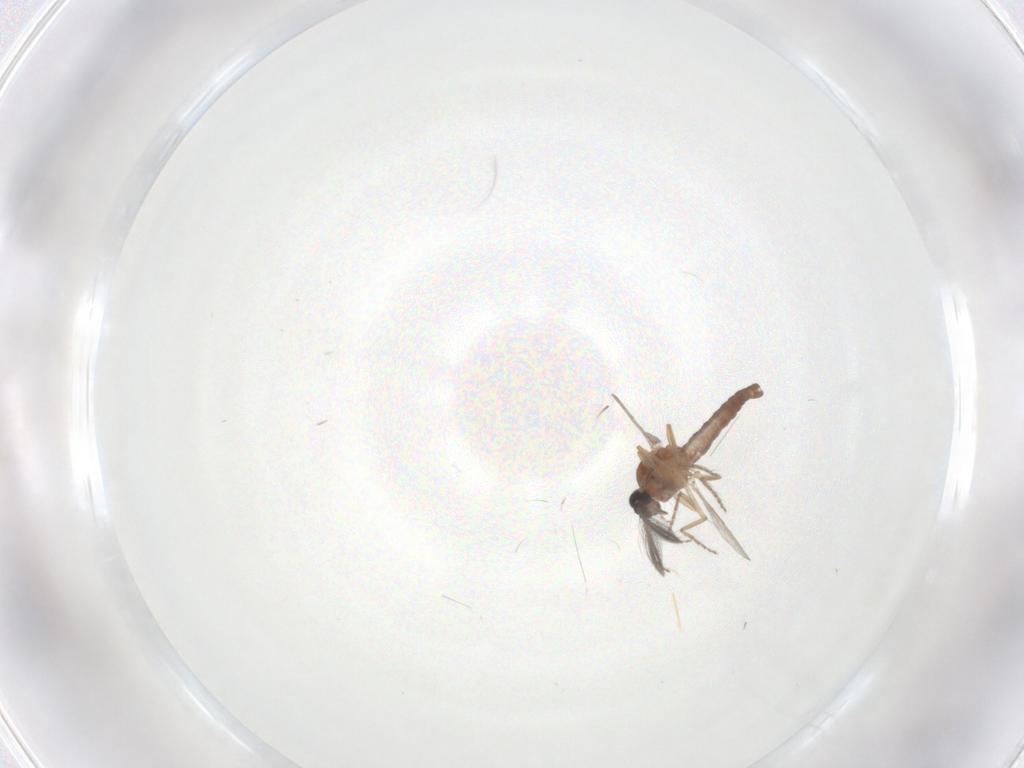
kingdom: Animalia
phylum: Arthropoda
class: Insecta
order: Diptera
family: Ceratopogonidae
